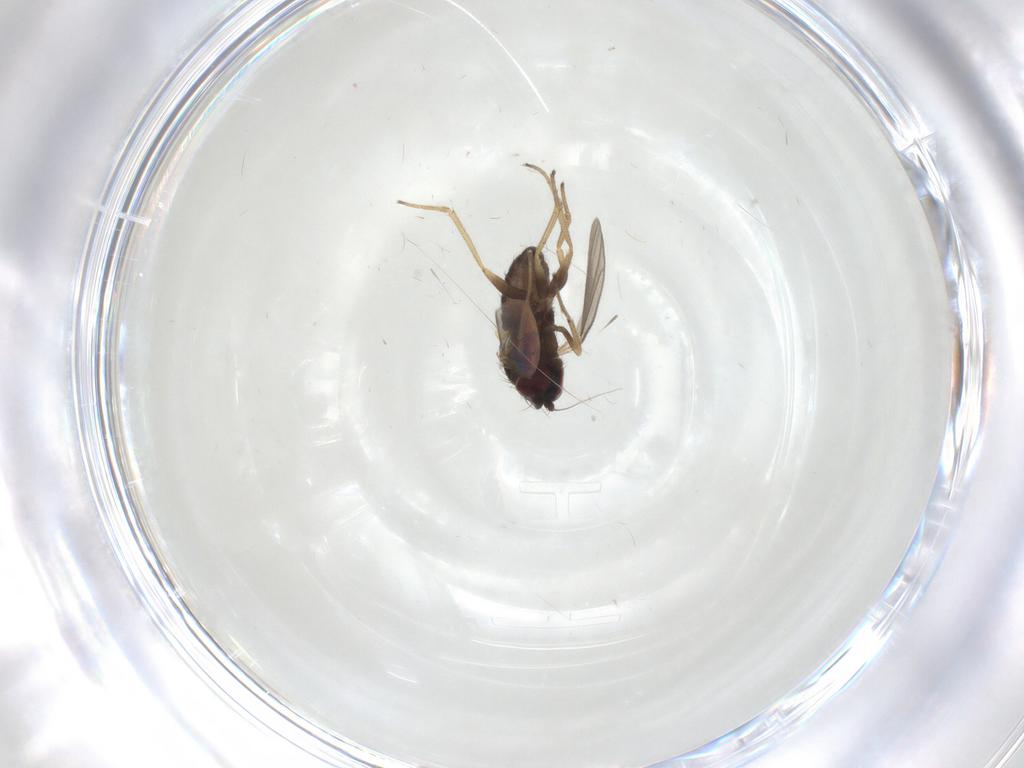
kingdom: Animalia
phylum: Arthropoda
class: Insecta
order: Diptera
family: Dolichopodidae
